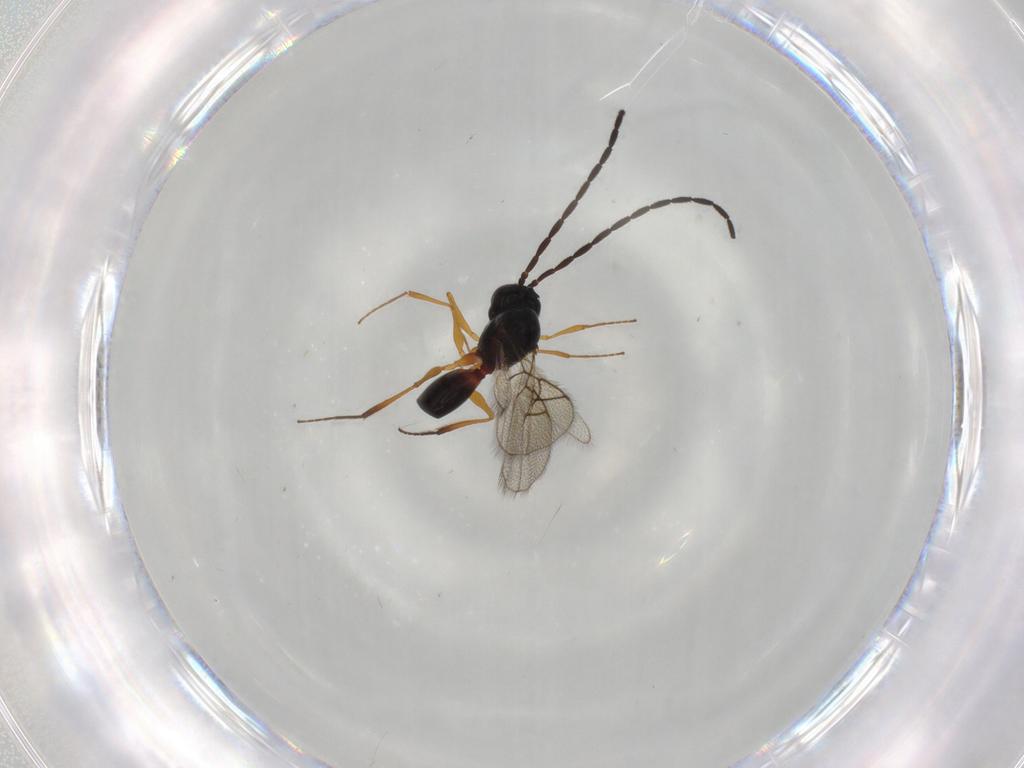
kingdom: Animalia
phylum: Arthropoda
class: Insecta
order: Hymenoptera
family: Figitidae
